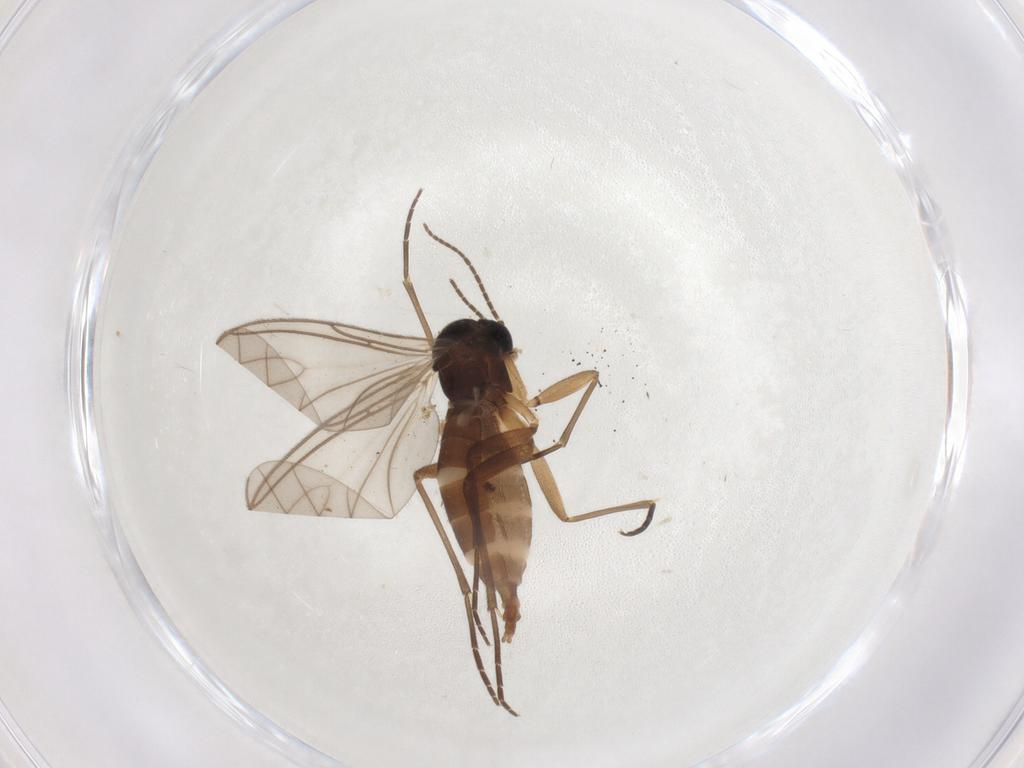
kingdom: Animalia
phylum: Arthropoda
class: Insecta
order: Diptera
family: Sciaridae
